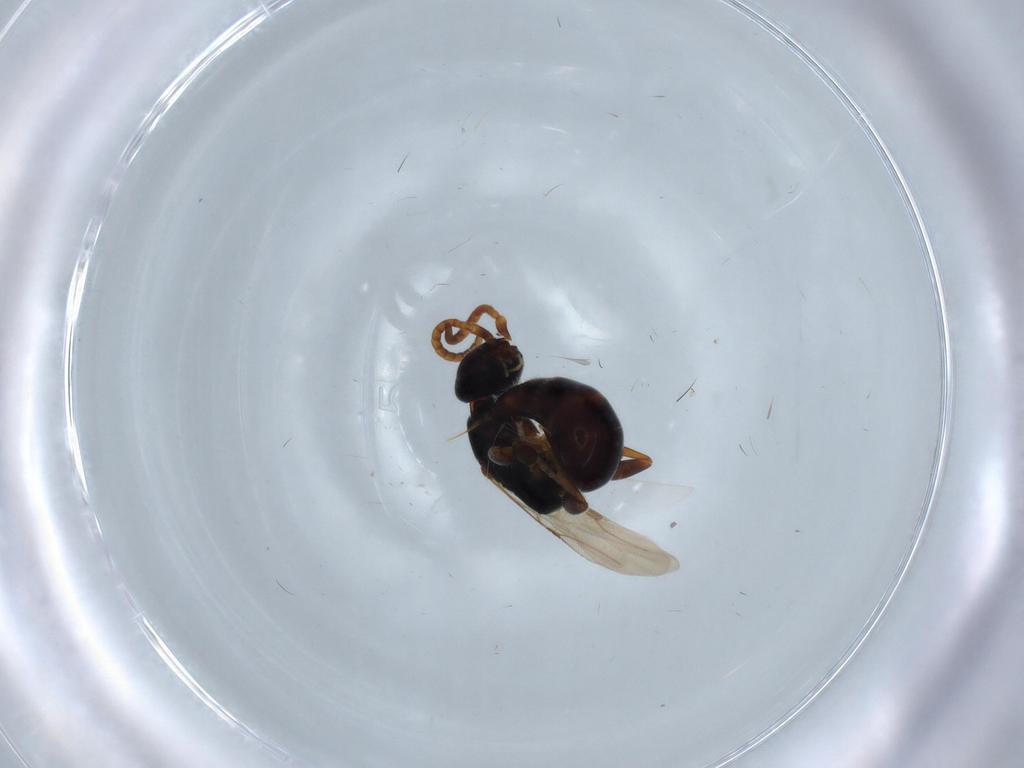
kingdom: Animalia
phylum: Arthropoda
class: Insecta
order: Hymenoptera
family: Bethylidae
